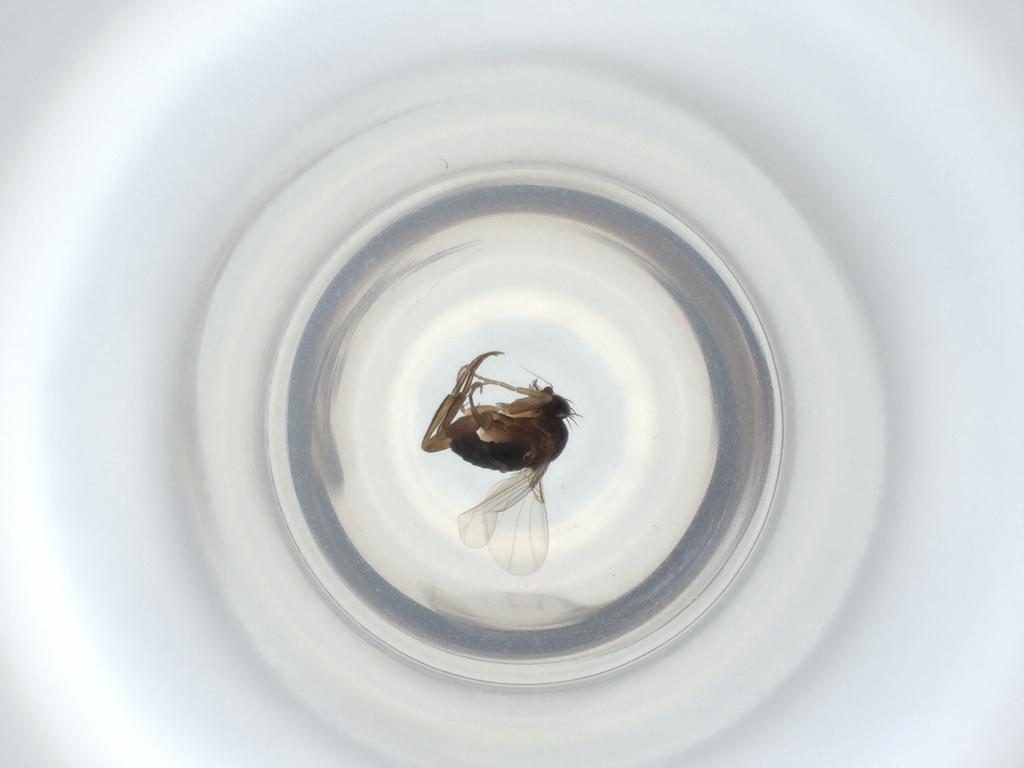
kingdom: Animalia
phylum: Arthropoda
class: Insecta
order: Diptera
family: Phoridae
